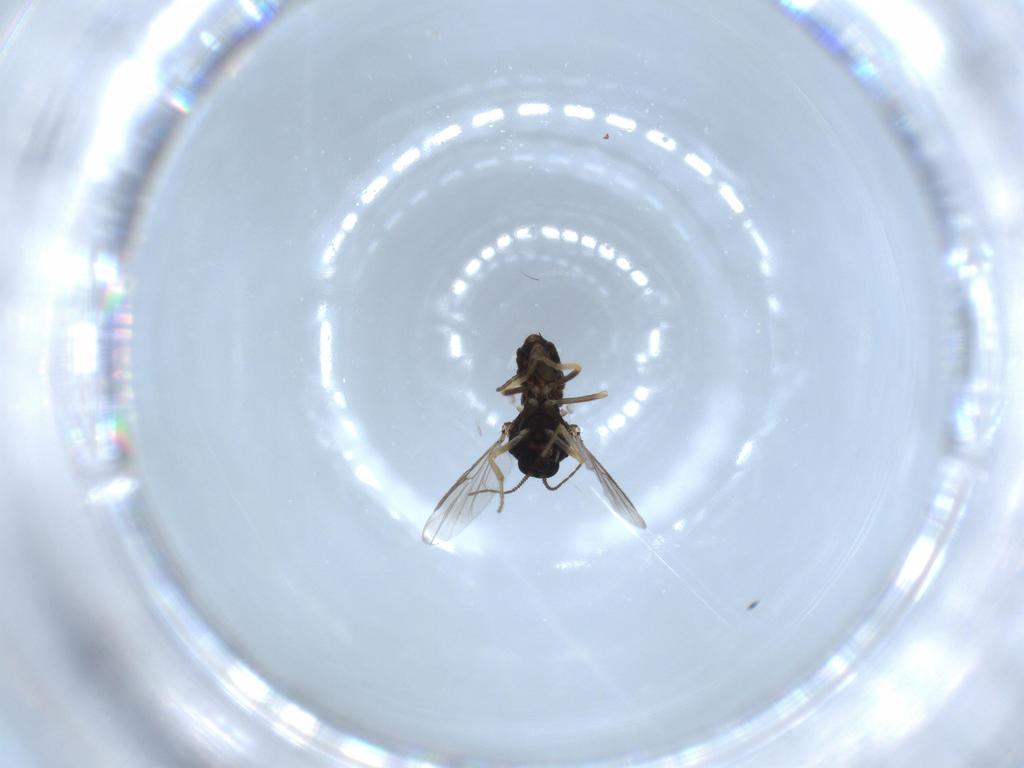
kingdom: Animalia
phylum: Arthropoda
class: Insecta
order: Diptera
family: Ceratopogonidae
